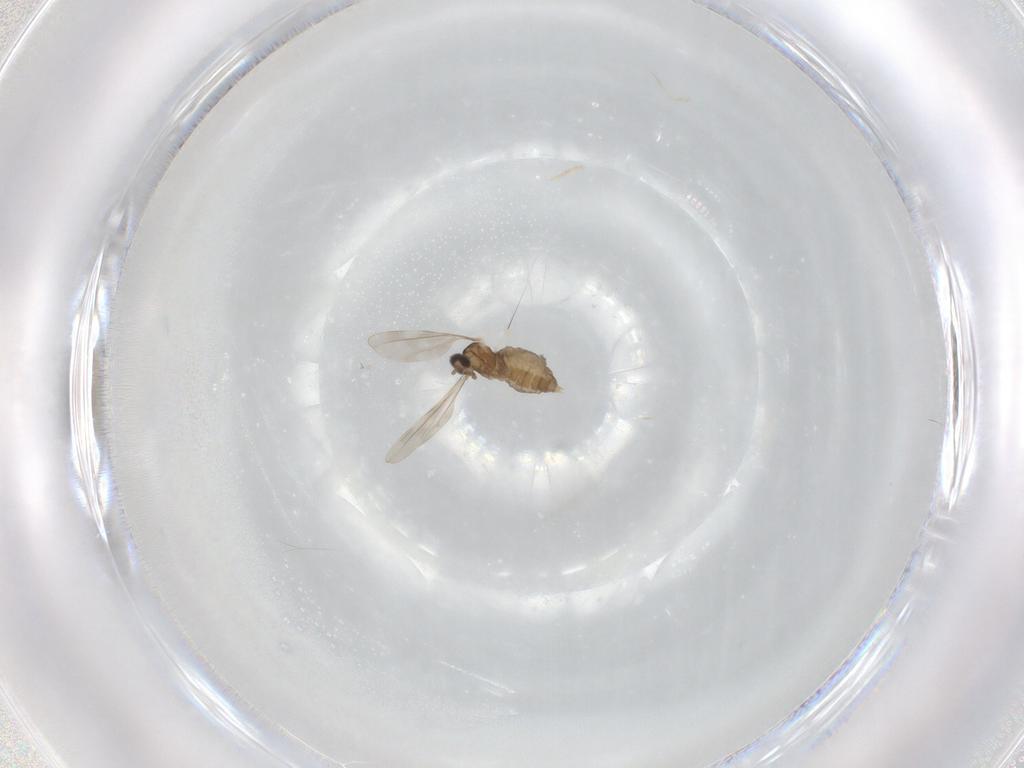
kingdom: Animalia
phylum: Arthropoda
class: Insecta
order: Diptera
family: Cecidomyiidae
